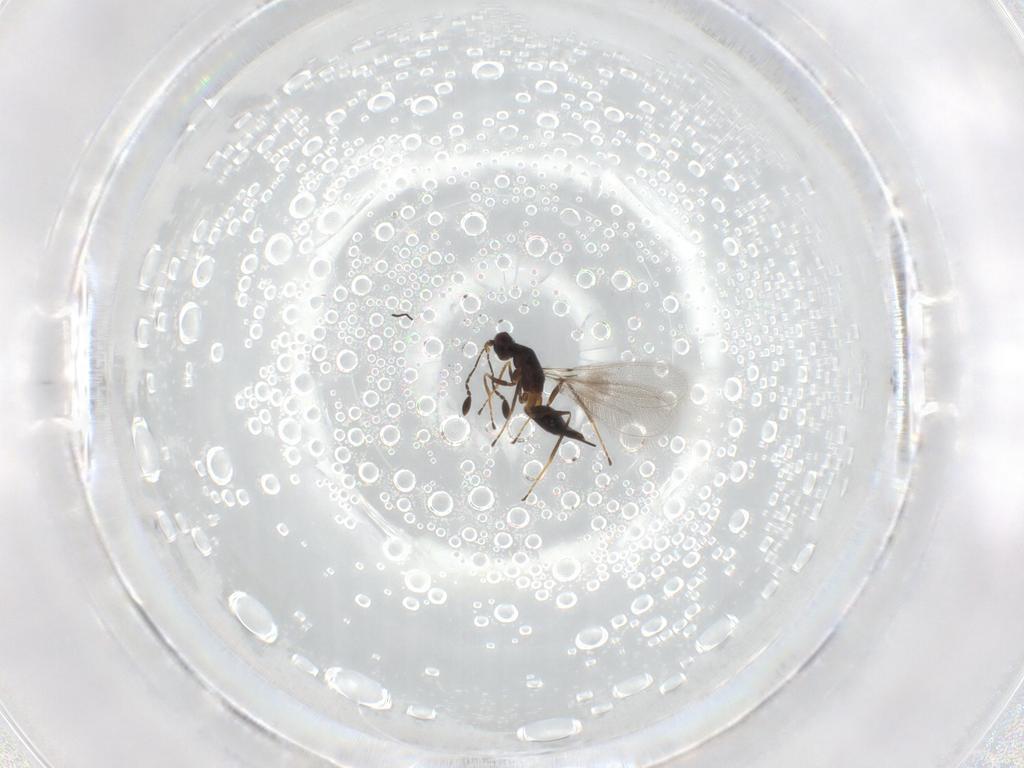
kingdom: Animalia
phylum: Arthropoda
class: Insecta
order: Hymenoptera
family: Mymaridae
